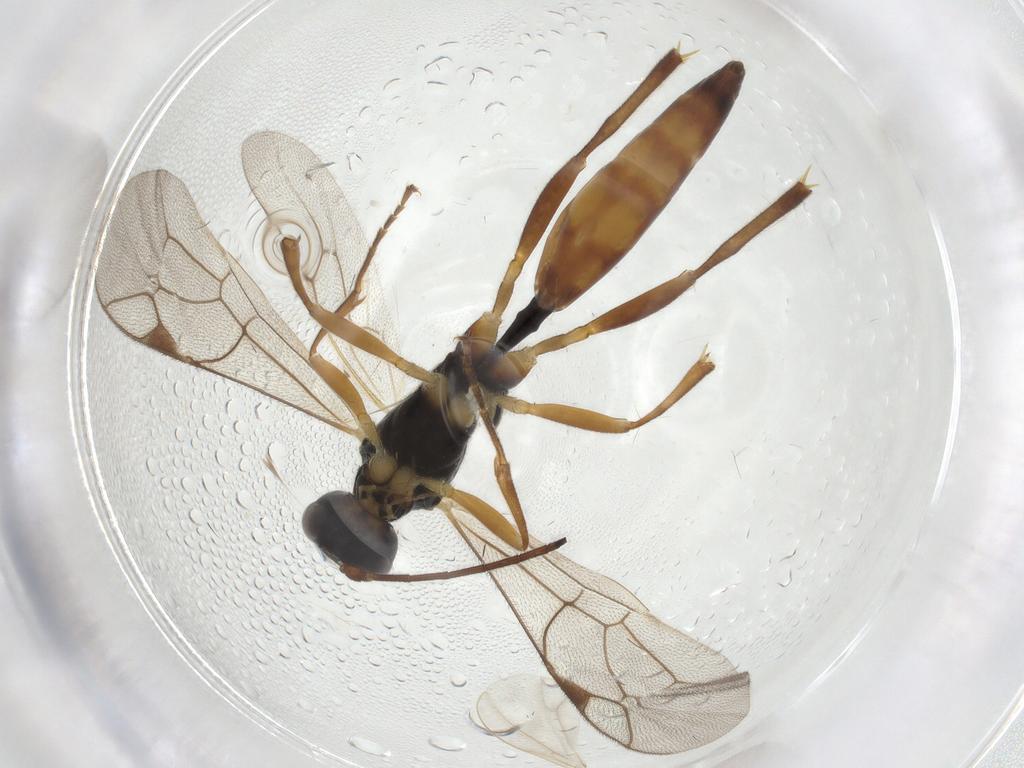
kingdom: Animalia
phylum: Arthropoda
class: Insecta
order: Hymenoptera
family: Ichneumonidae
